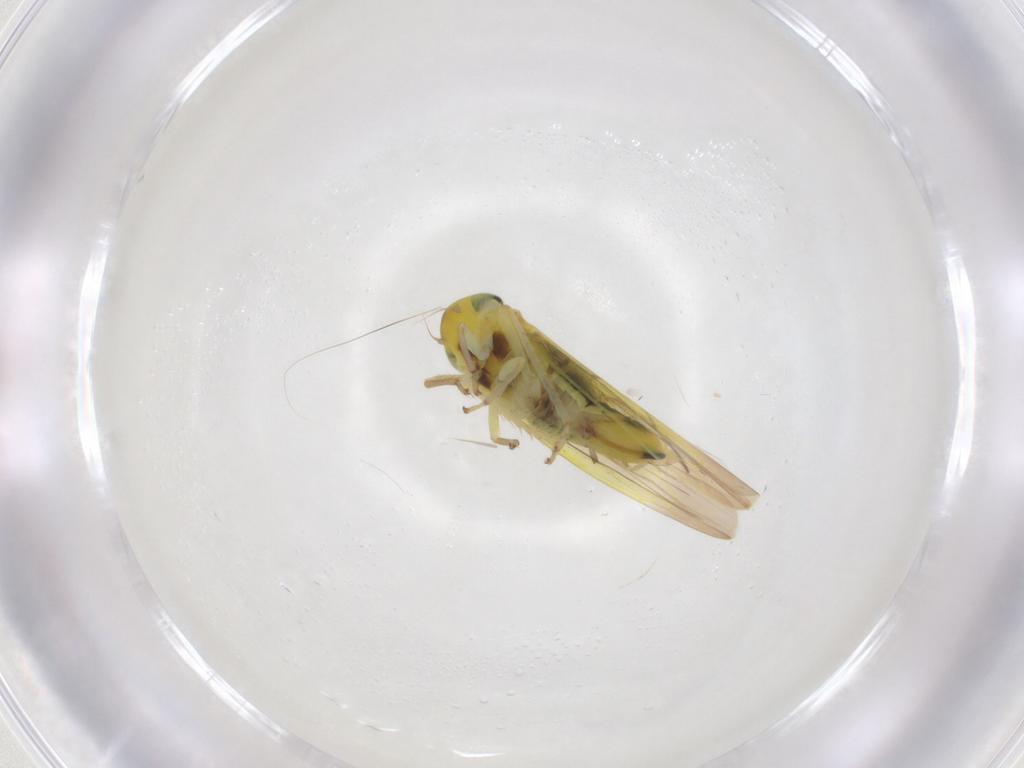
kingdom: Animalia
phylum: Arthropoda
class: Insecta
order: Hemiptera
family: Cicadellidae
